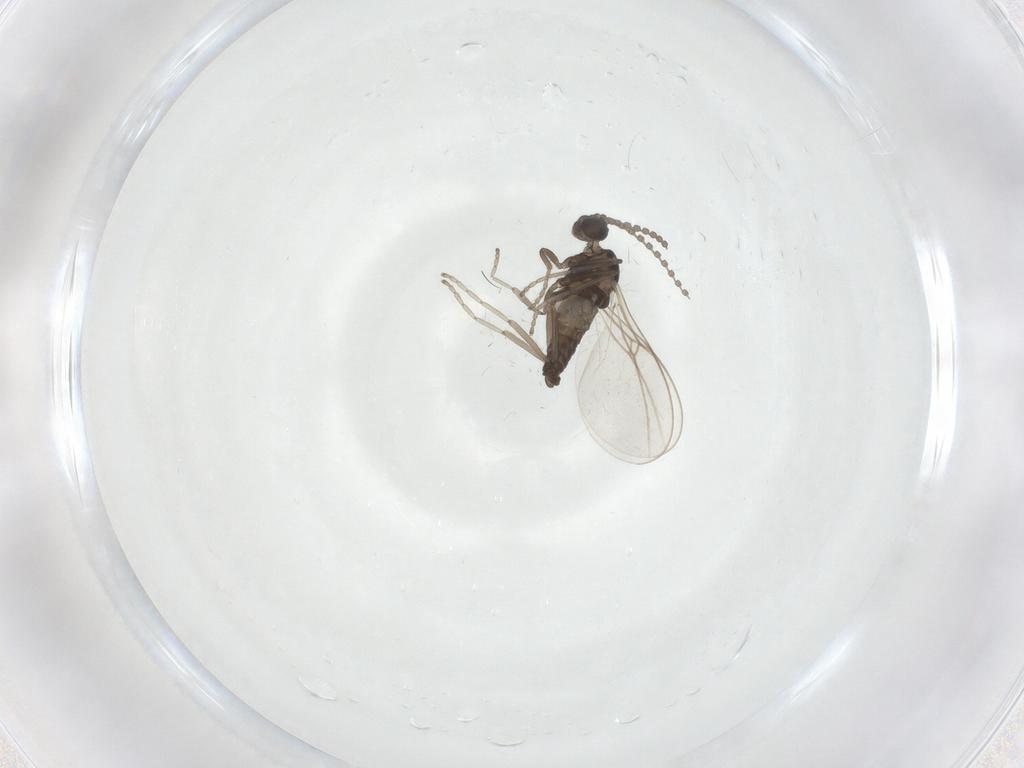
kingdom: Animalia
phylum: Arthropoda
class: Insecta
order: Diptera
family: Cecidomyiidae
